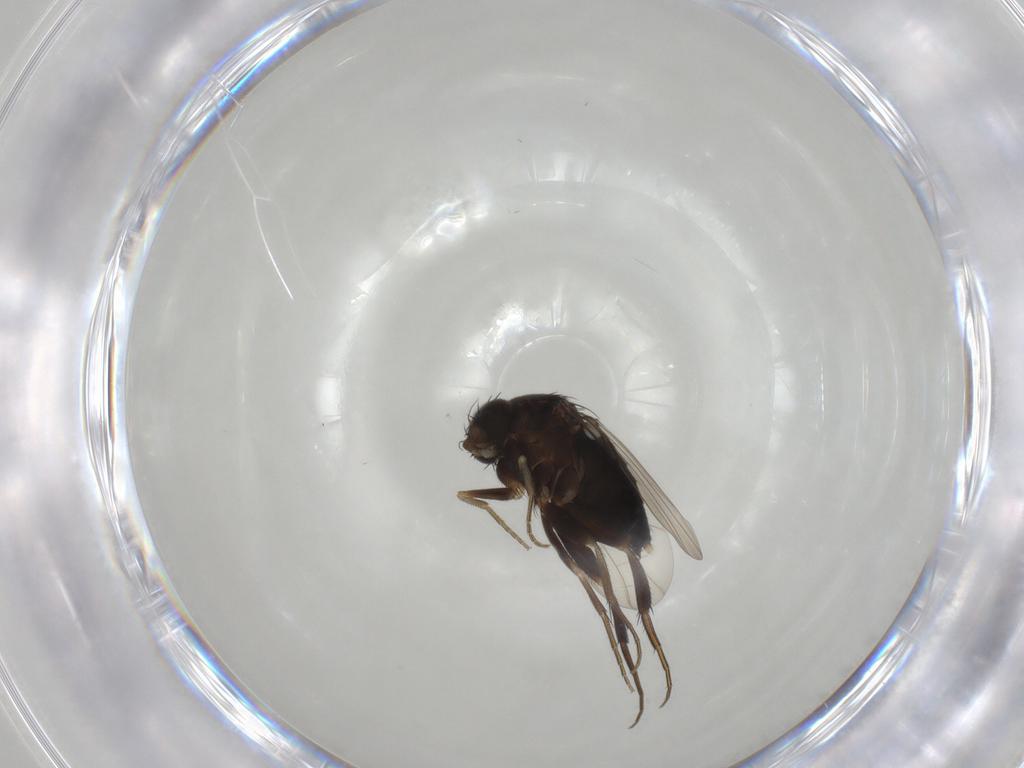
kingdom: Animalia
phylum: Arthropoda
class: Insecta
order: Diptera
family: Phoridae
